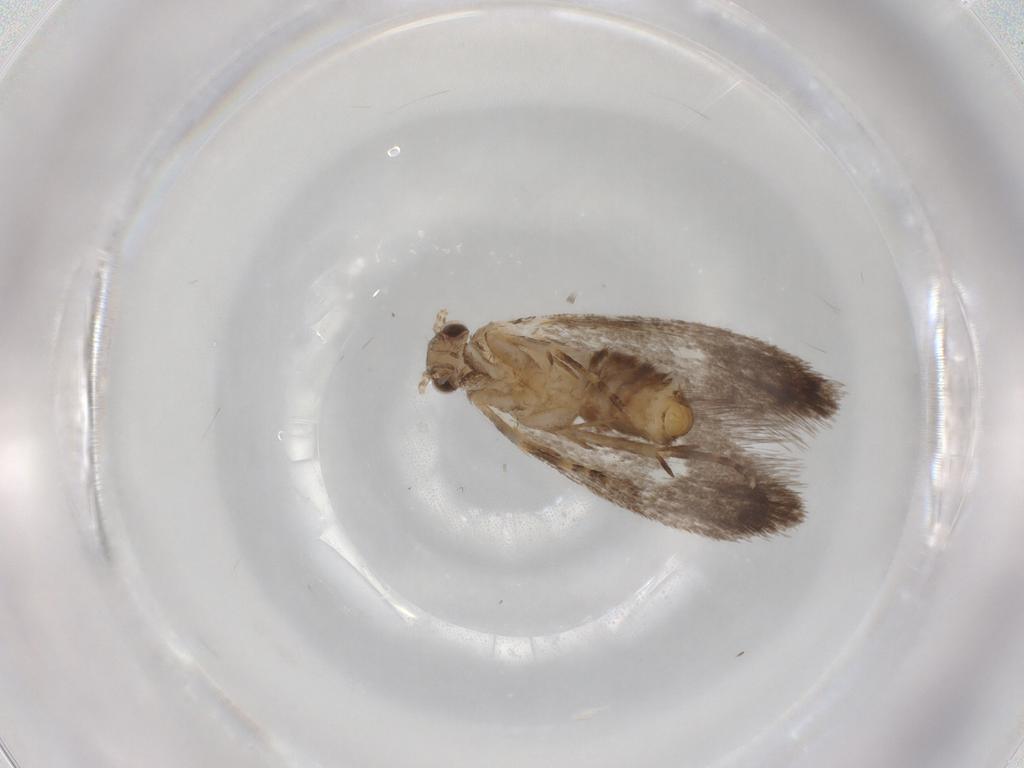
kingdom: Animalia
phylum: Arthropoda
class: Insecta
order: Lepidoptera
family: Dryadaulidae
